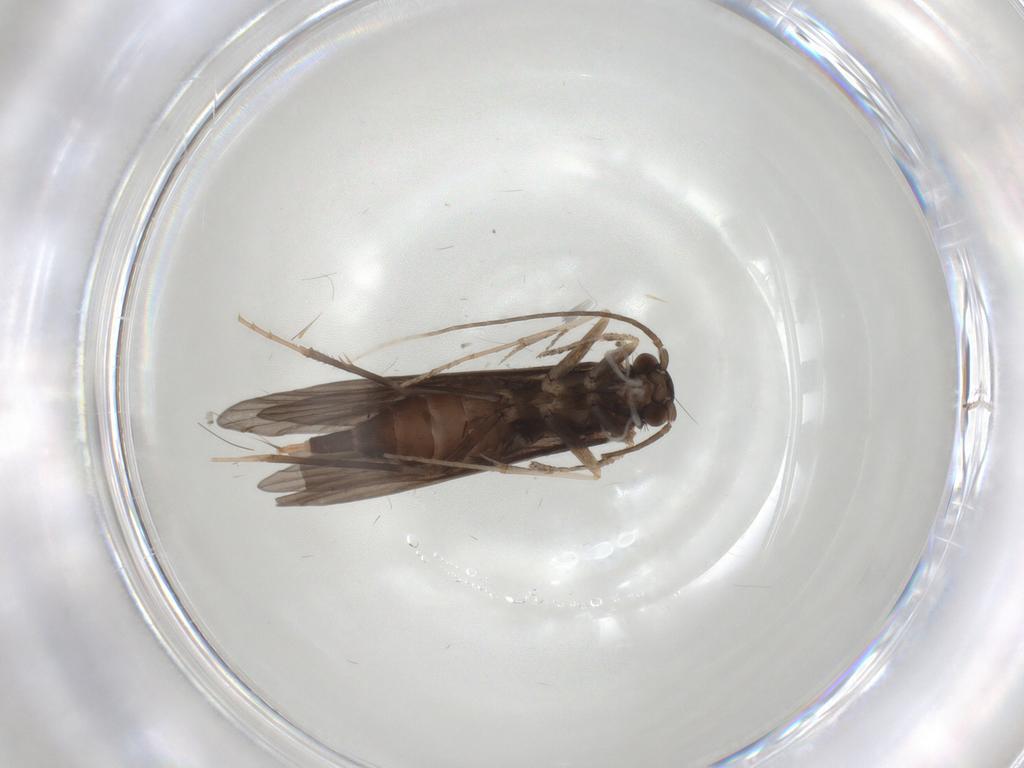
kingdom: Animalia
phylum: Arthropoda
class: Insecta
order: Trichoptera
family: Xiphocentronidae
